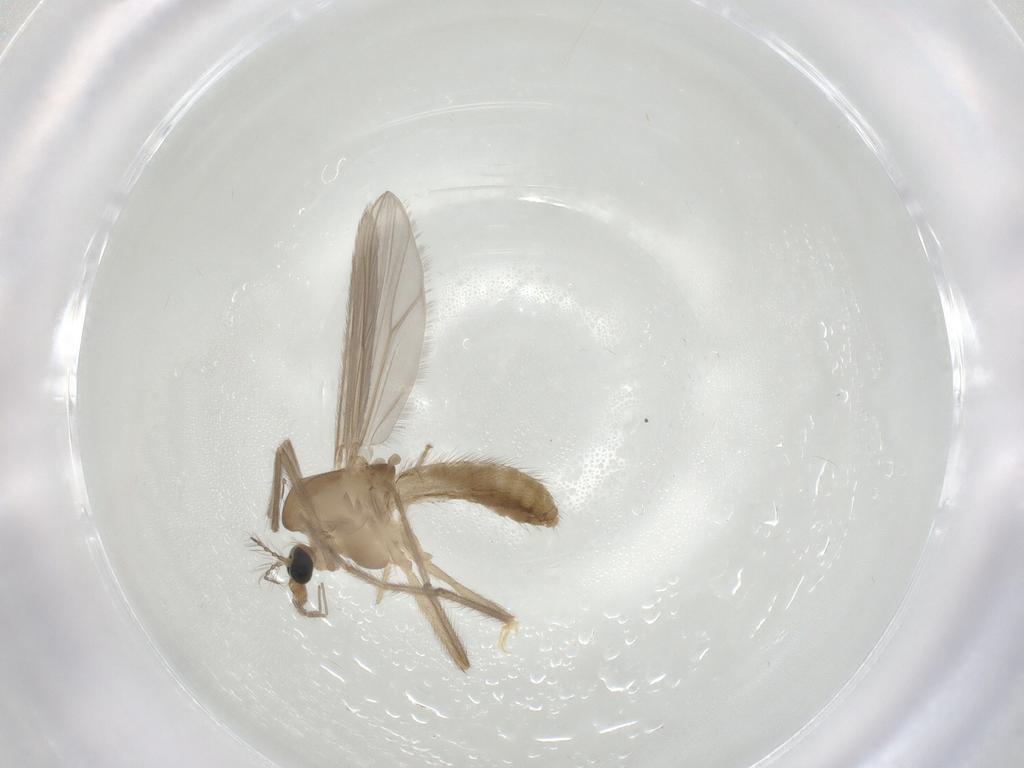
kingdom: Animalia
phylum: Arthropoda
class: Insecta
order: Diptera
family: Chironomidae
